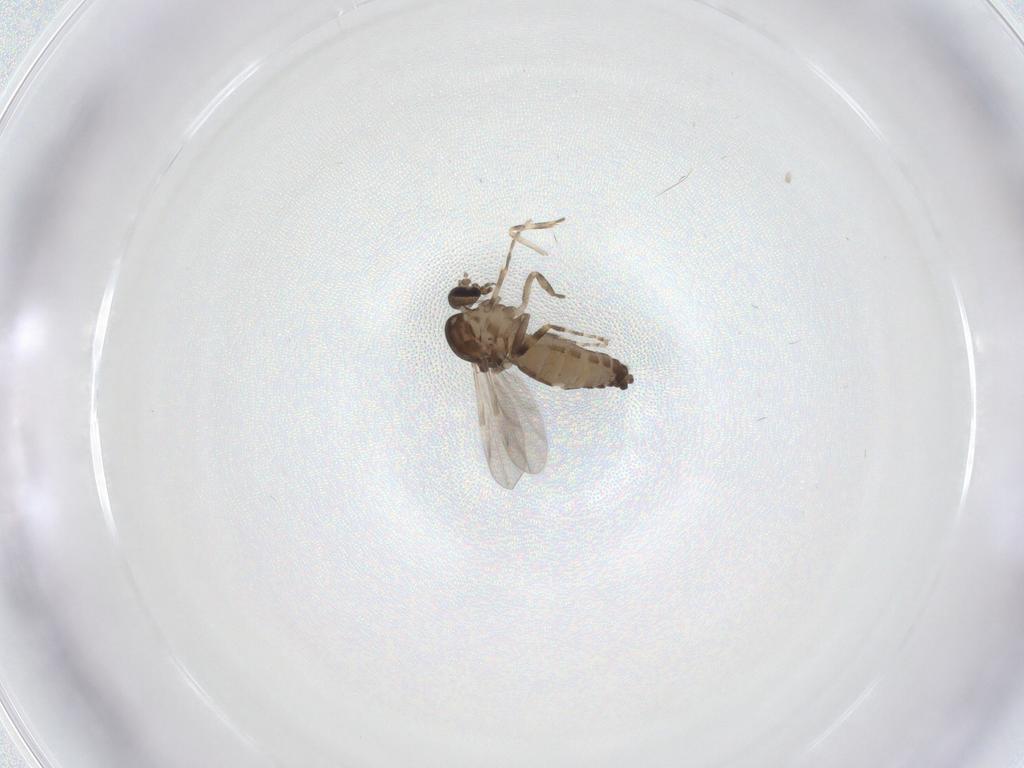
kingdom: Animalia
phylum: Arthropoda
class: Insecta
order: Diptera
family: Ceratopogonidae
